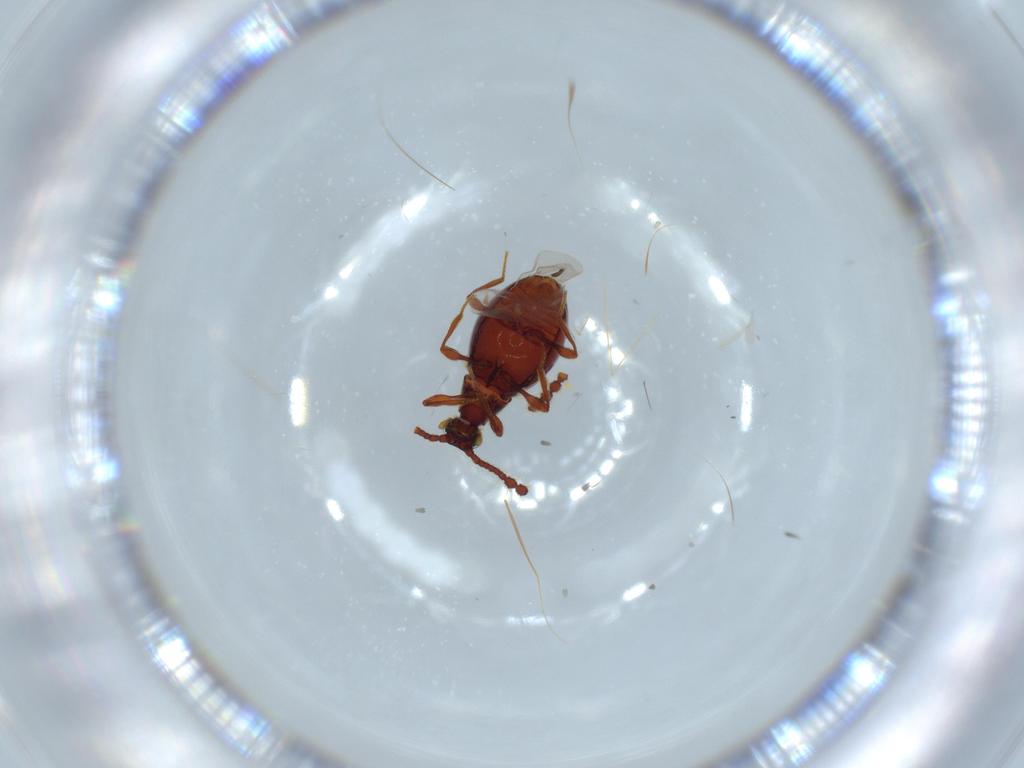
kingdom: Animalia
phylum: Arthropoda
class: Insecta
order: Coleoptera
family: Staphylinidae
